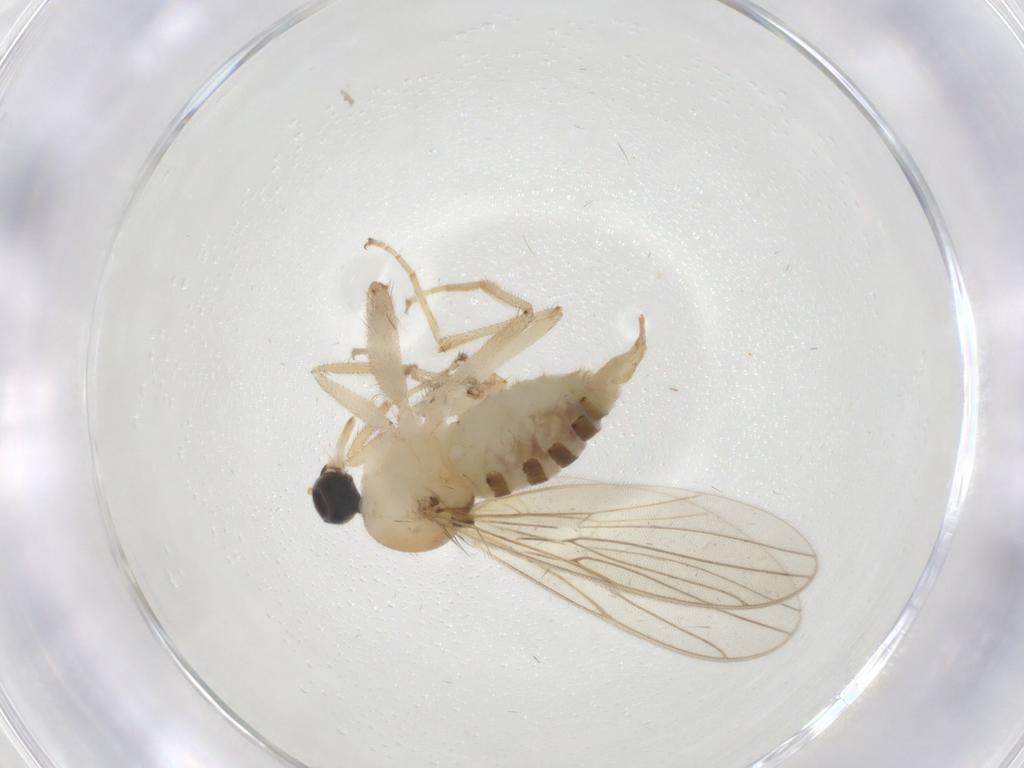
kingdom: Animalia
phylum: Arthropoda
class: Insecta
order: Diptera
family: Hybotidae
